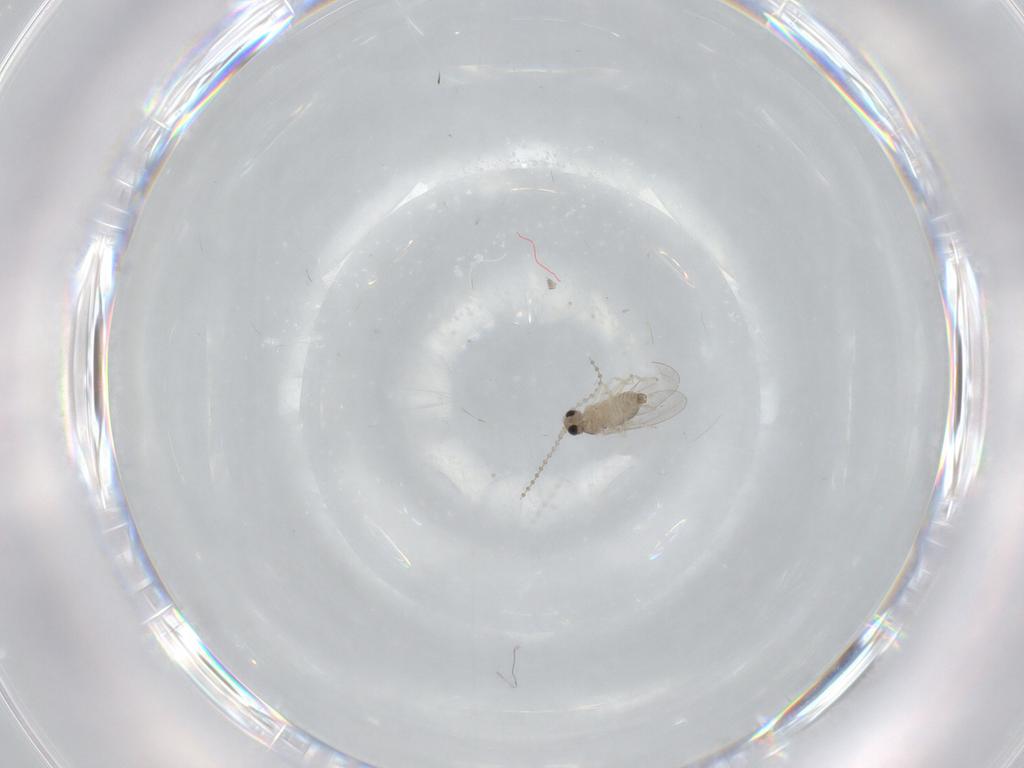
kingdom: Animalia
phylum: Arthropoda
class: Insecta
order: Diptera
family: Cecidomyiidae
